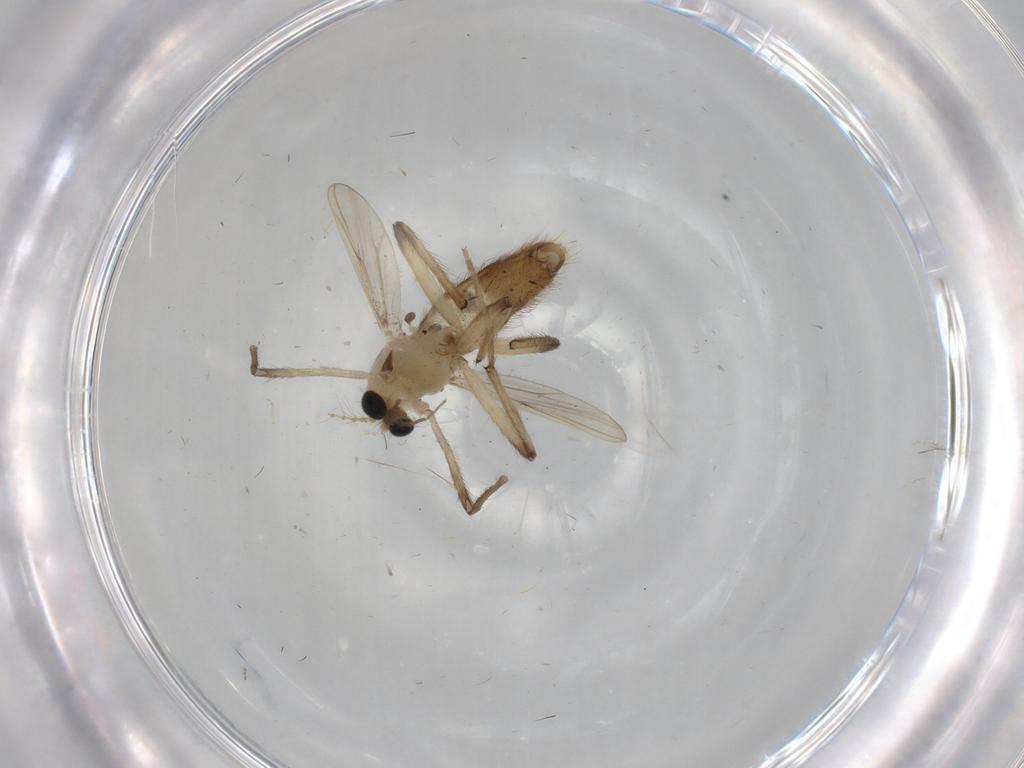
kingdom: Animalia
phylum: Arthropoda
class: Insecta
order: Diptera
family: Chironomidae
